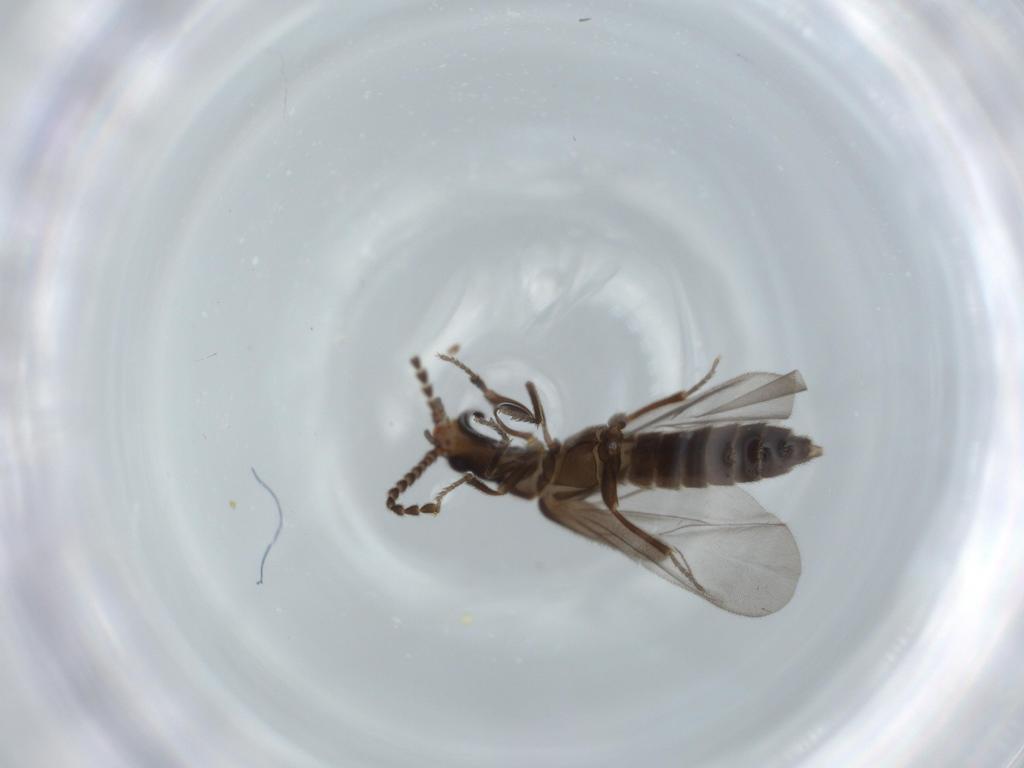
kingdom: Animalia
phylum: Arthropoda
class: Insecta
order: Coleoptera
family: Omethidae
